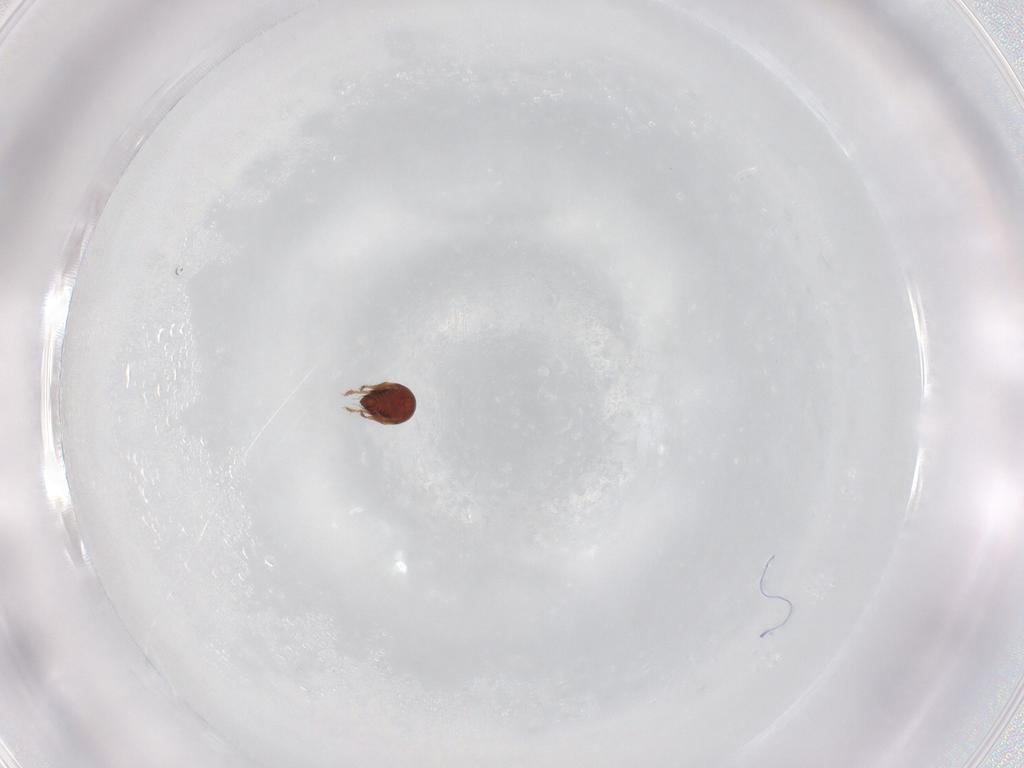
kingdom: Animalia
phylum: Arthropoda
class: Arachnida
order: Sarcoptiformes
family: Ceratozetidae
